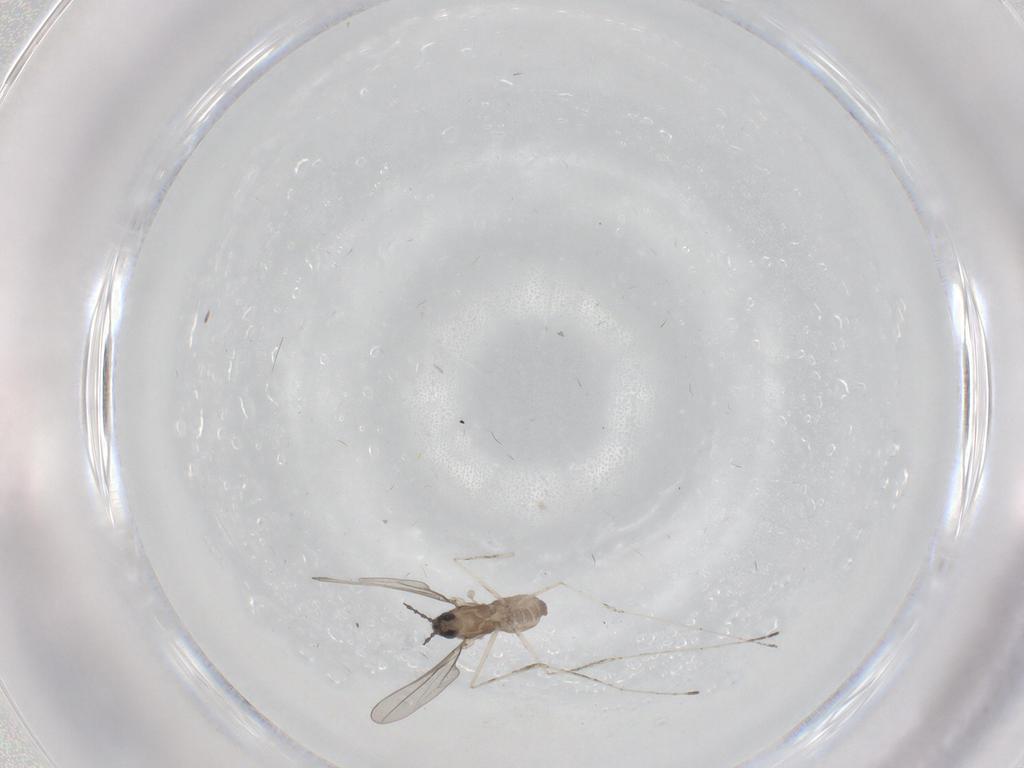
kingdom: Animalia
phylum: Arthropoda
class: Insecta
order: Diptera
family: Cecidomyiidae
